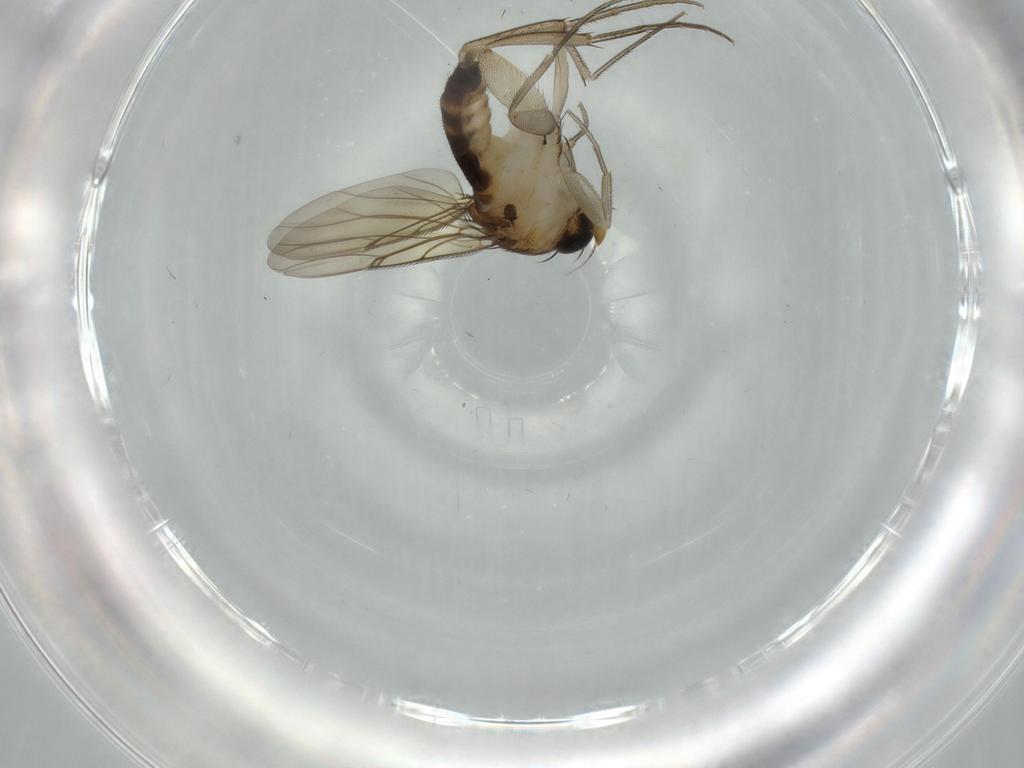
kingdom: Animalia
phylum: Arthropoda
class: Insecta
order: Diptera
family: Phoridae
